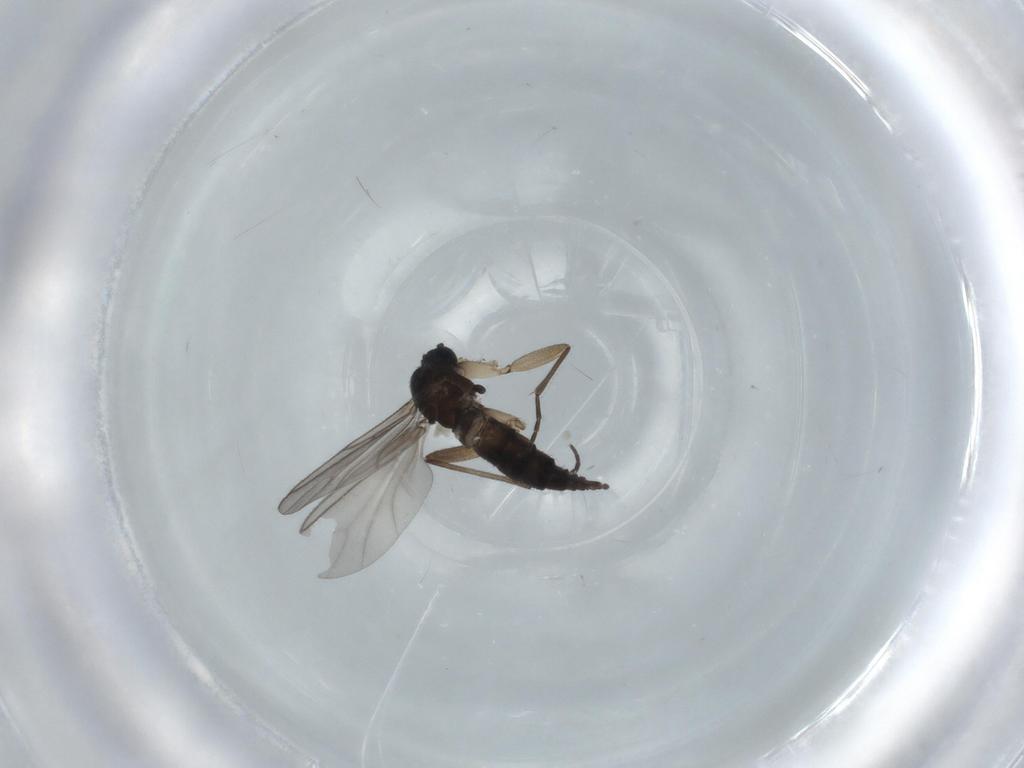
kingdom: Animalia
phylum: Arthropoda
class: Insecta
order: Diptera
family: Sciaridae
